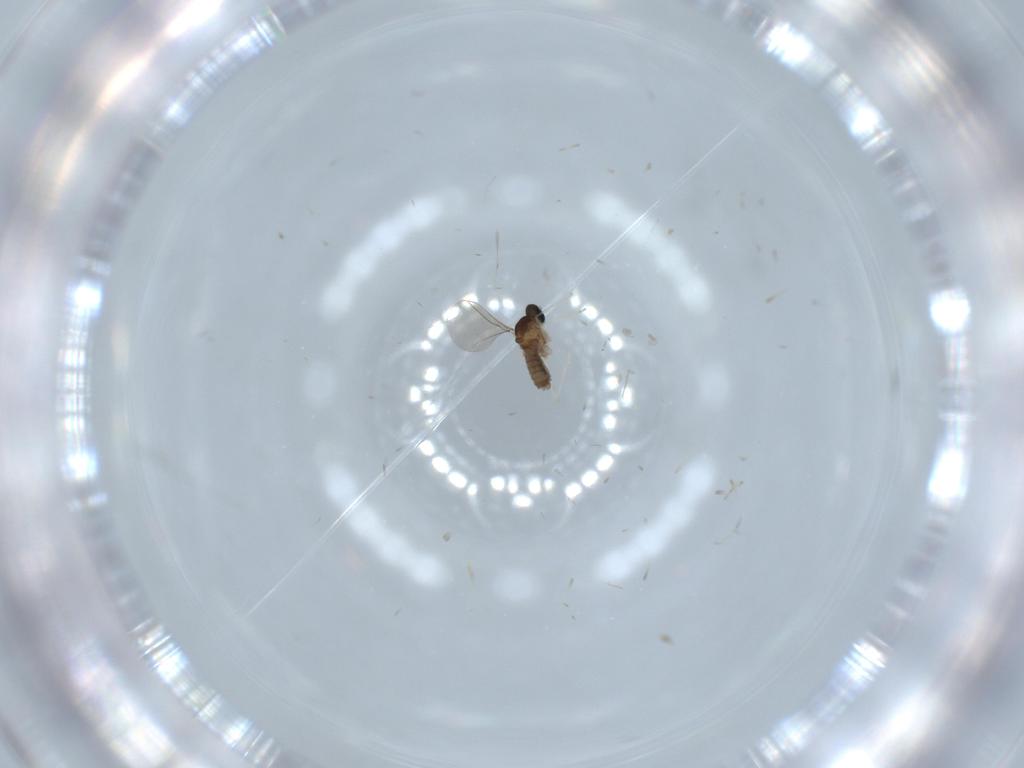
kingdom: Animalia
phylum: Arthropoda
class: Insecta
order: Diptera
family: Cecidomyiidae
